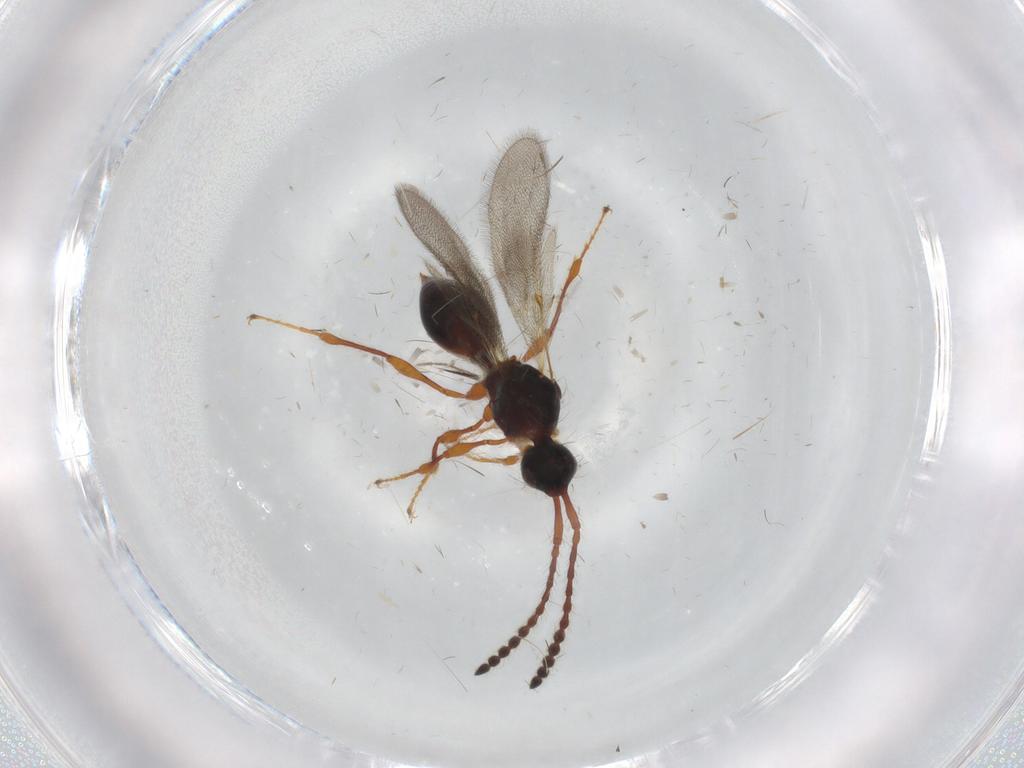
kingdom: Animalia
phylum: Arthropoda
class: Insecta
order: Hymenoptera
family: Diapriidae
